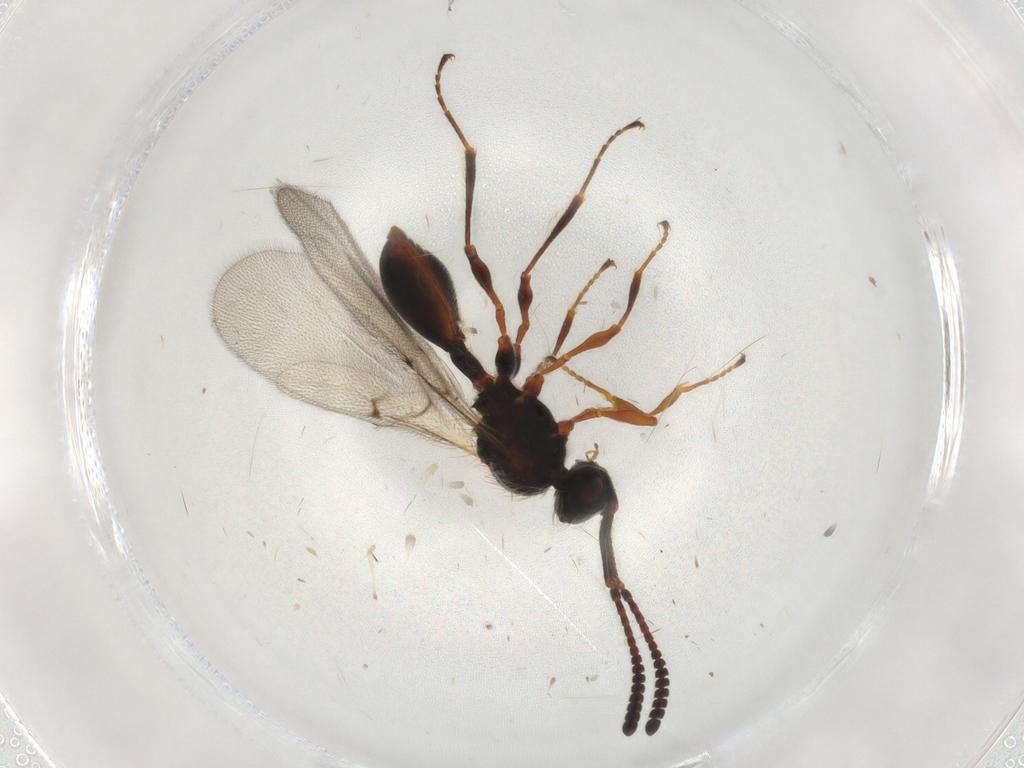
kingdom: Animalia
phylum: Arthropoda
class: Insecta
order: Hymenoptera
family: Diapriidae
